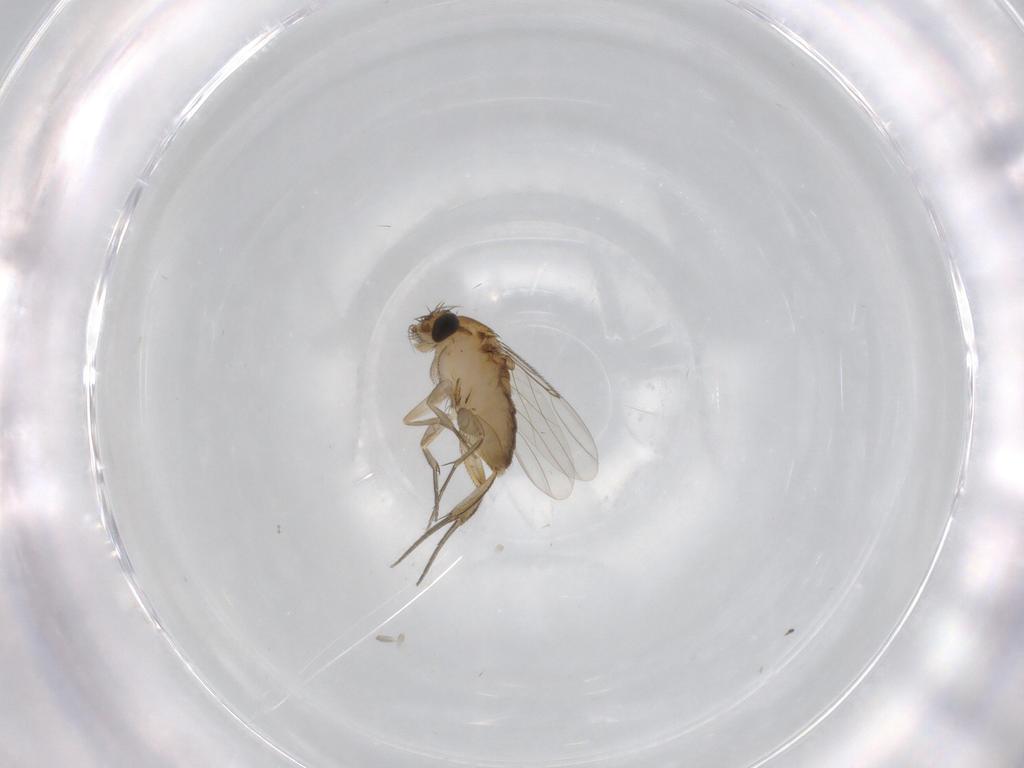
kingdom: Animalia
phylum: Arthropoda
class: Insecta
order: Diptera
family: Phoridae
